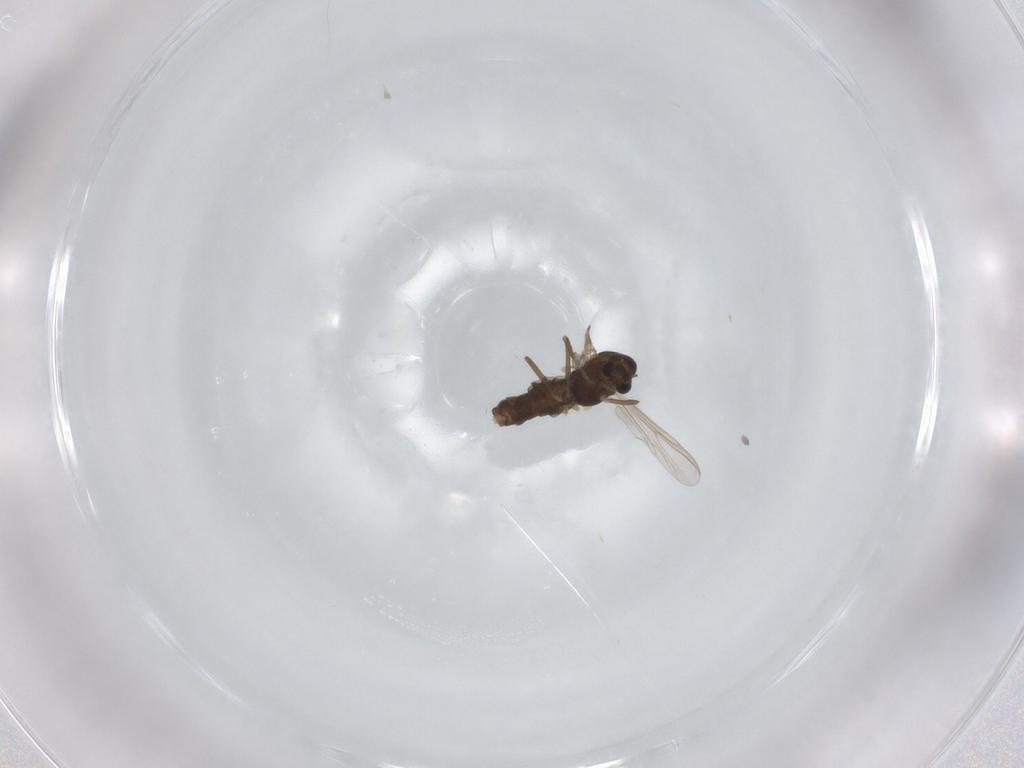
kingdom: Animalia
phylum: Arthropoda
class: Insecta
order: Diptera
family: Chironomidae
